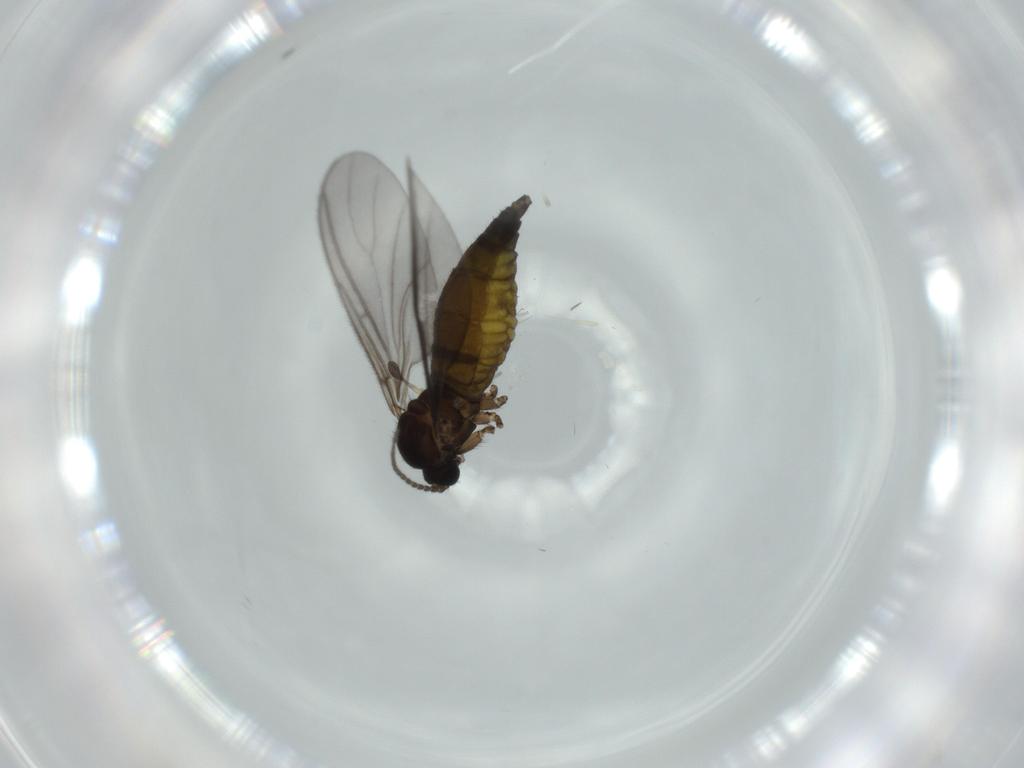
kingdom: Animalia
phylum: Arthropoda
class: Insecta
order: Diptera
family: Sciaridae
